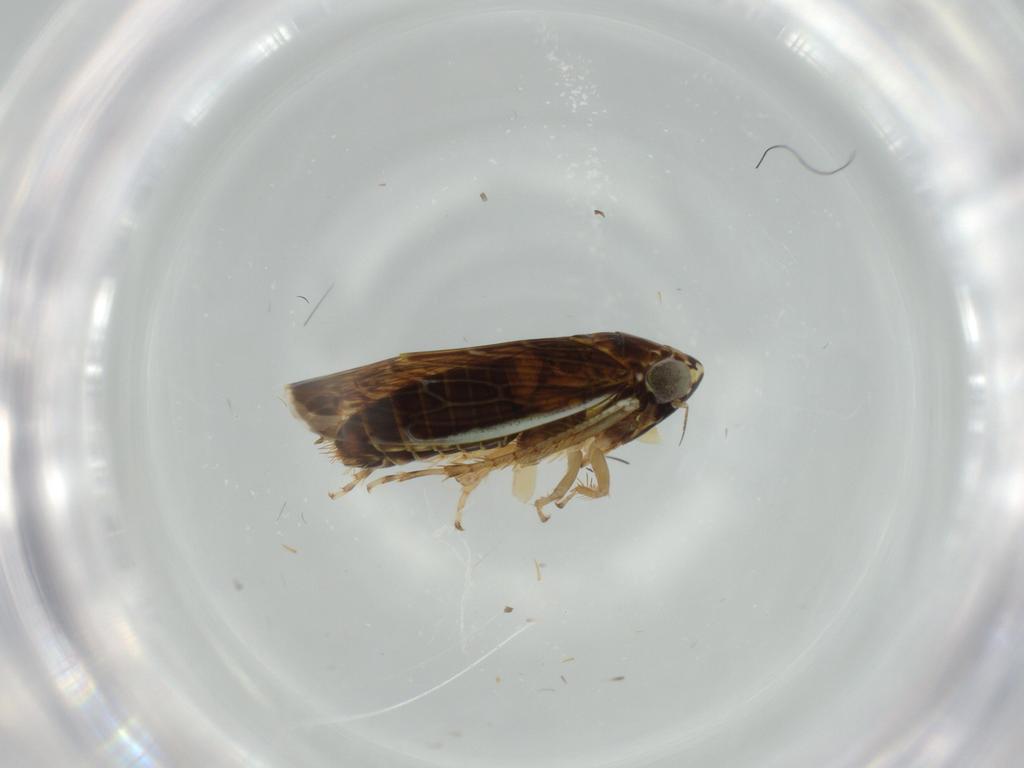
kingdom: Animalia
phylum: Arthropoda
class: Insecta
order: Hemiptera
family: Cicadellidae
